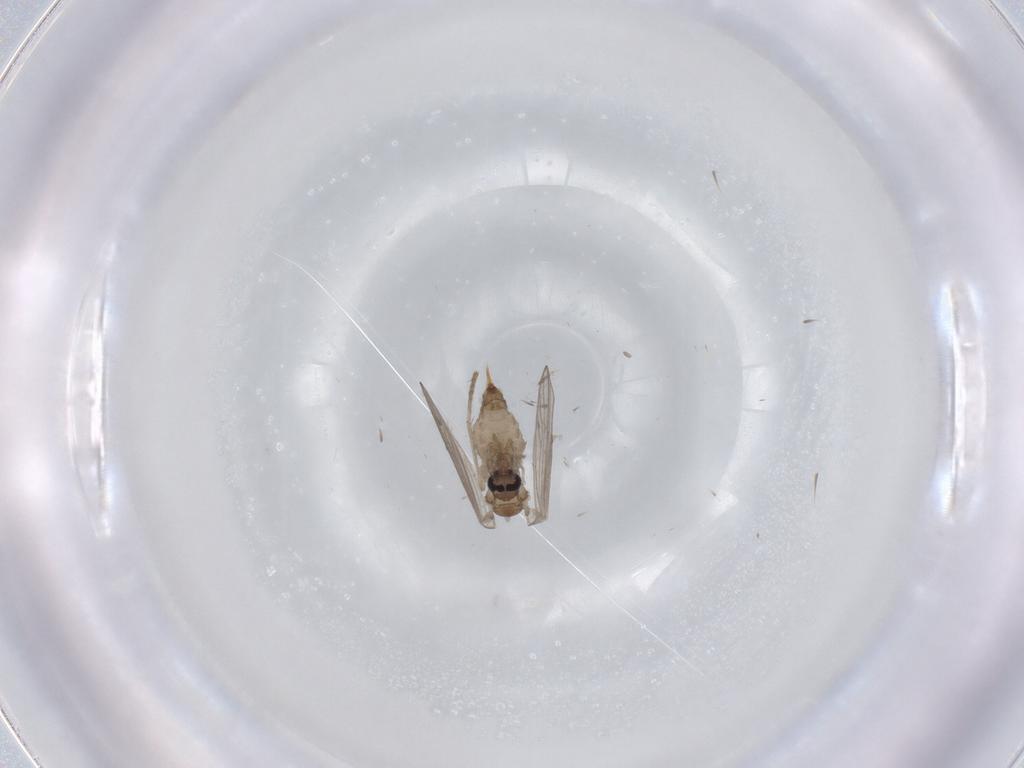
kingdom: Animalia
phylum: Arthropoda
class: Insecta
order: Diptera
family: Psychodidae
